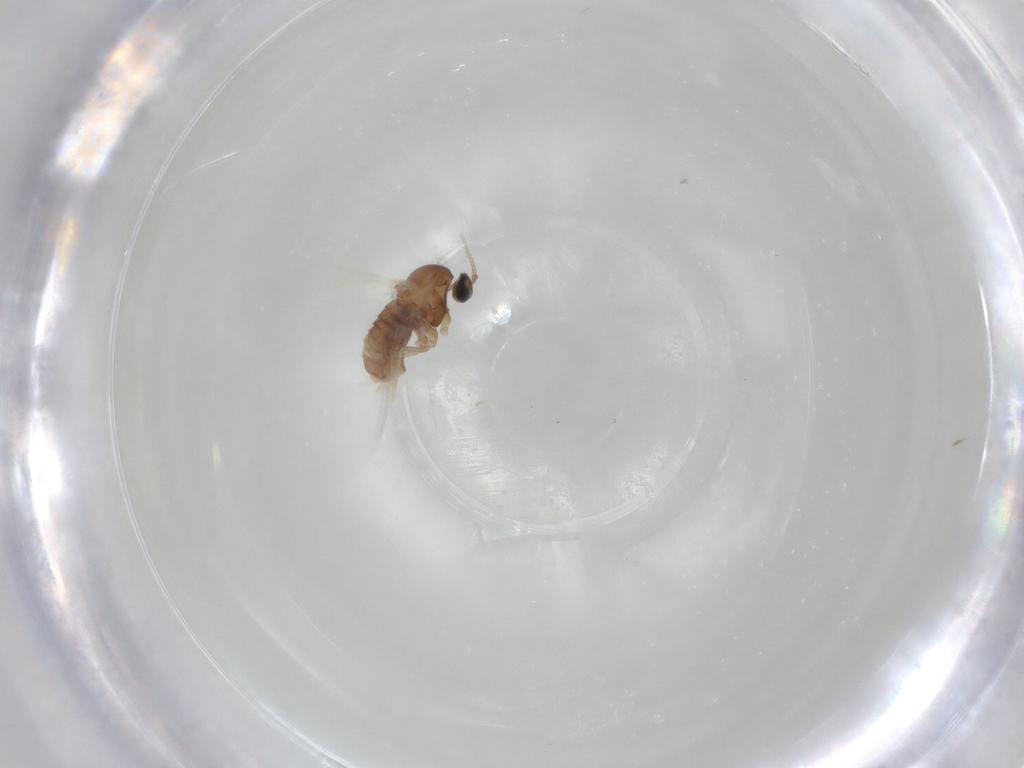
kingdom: Animalia
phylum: Arthropoda
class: Insecta
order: Diptera
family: Cecidomyiidae
